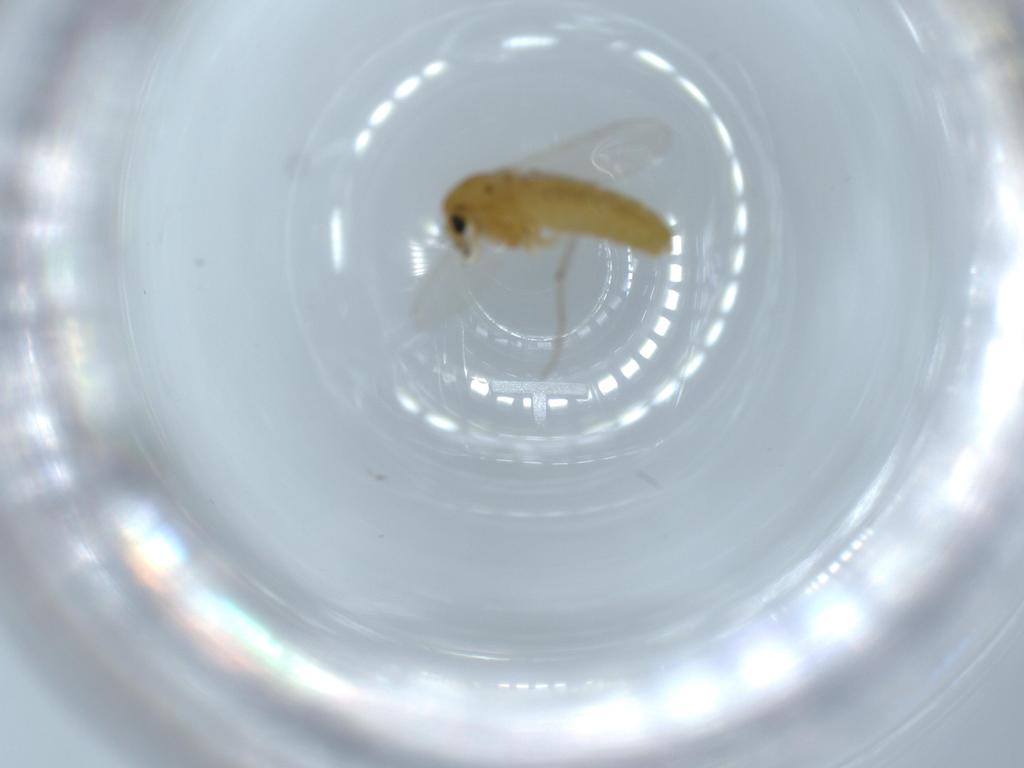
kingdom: Animalia
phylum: Arthropoda
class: Insecta
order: Diptera
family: Chironomidae
